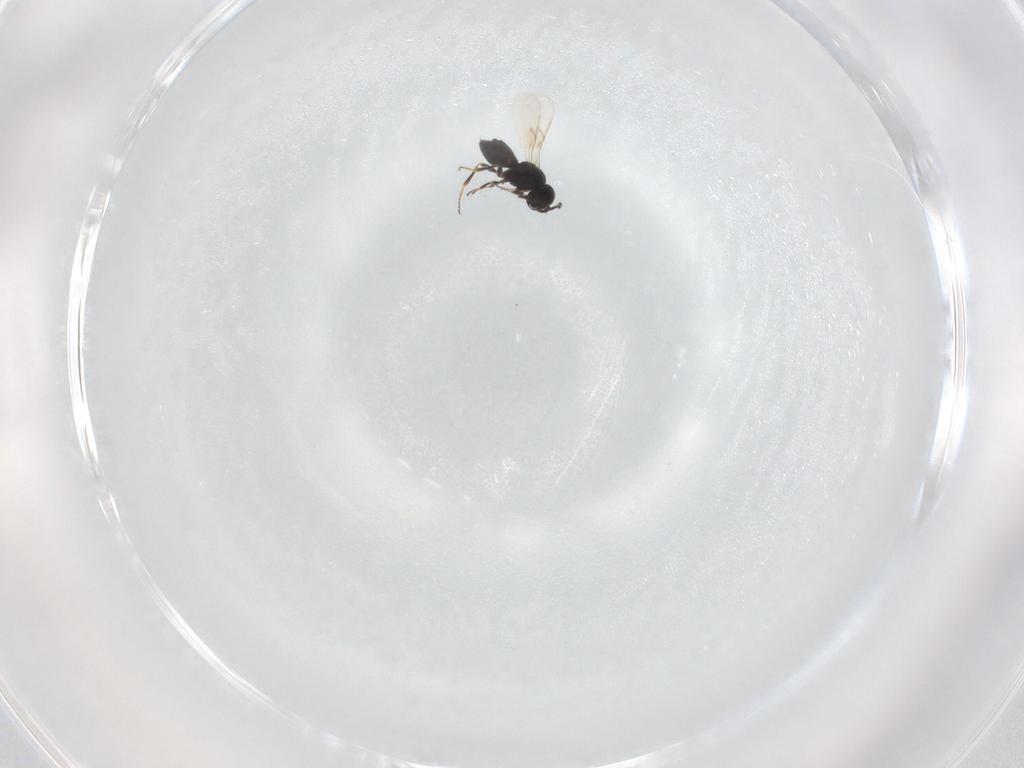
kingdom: Animalia
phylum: Arthropoda
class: Insecta
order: Hymenoptera
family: Scelionidae
